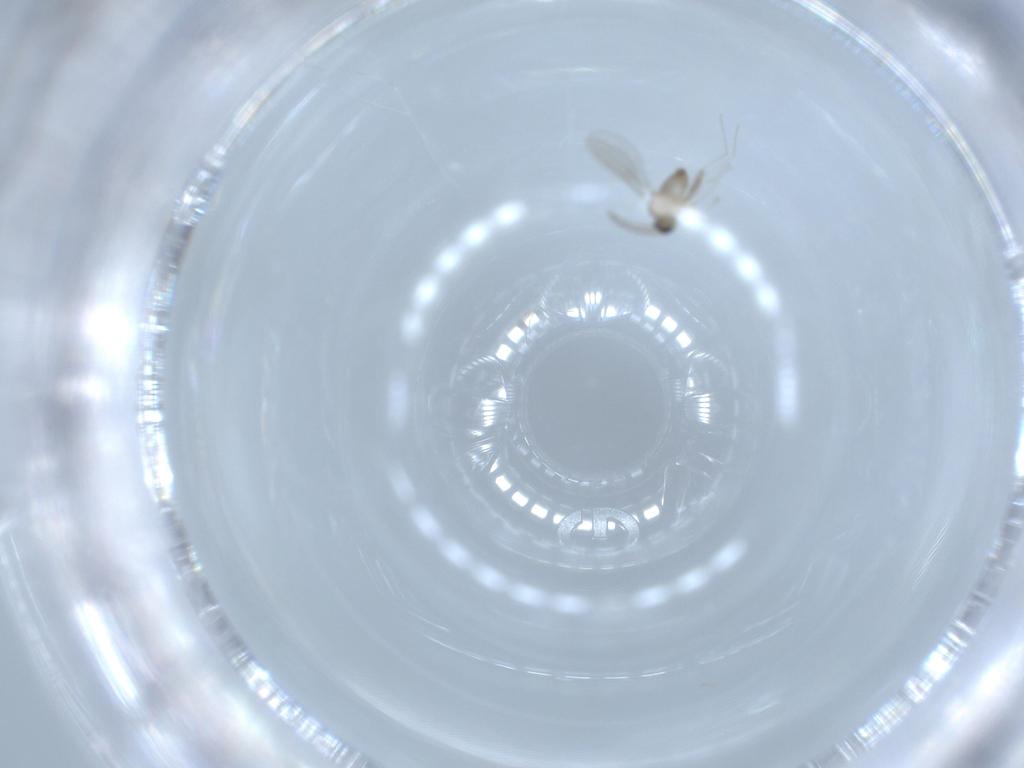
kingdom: Animalia
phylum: Arthropoda
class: Insecta
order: Diptera
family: Cecidomyiidae
